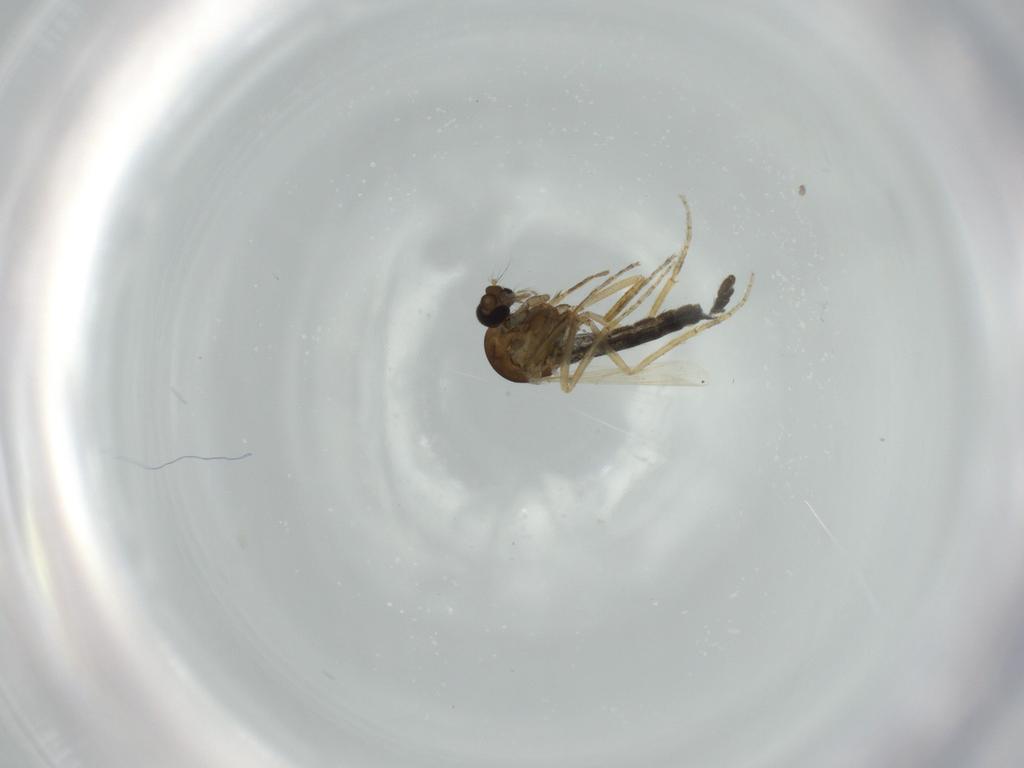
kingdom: Animalia
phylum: Arthropoda
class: Insecta
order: Diptera
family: Ceratopogonidae
